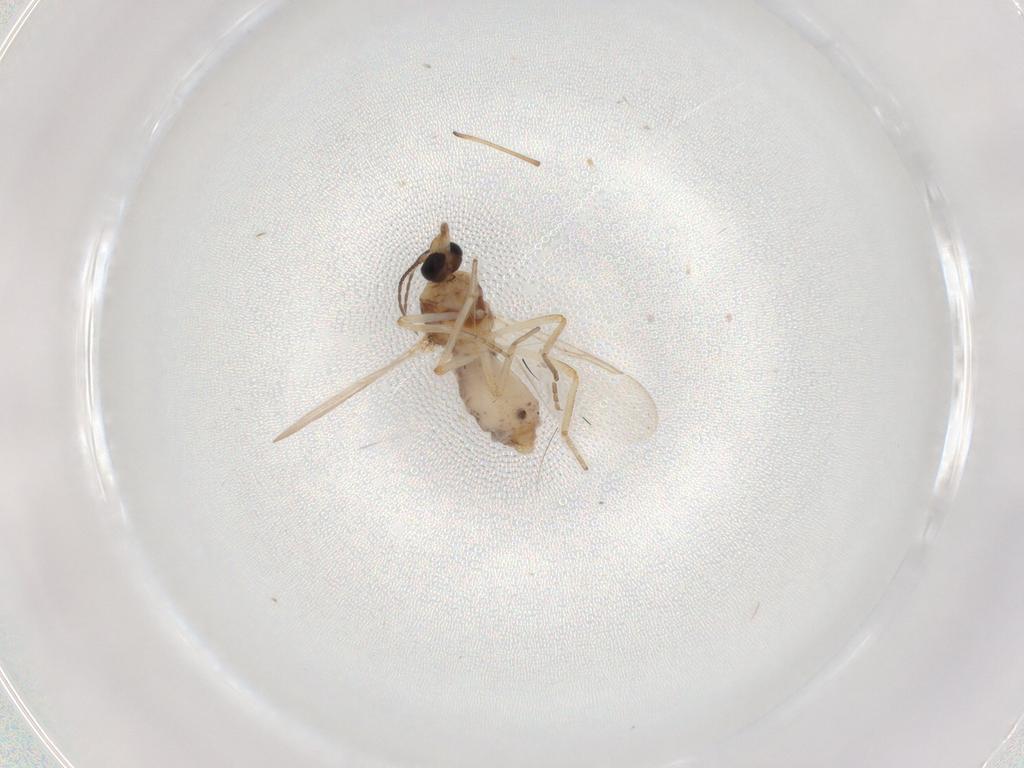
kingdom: Animalia
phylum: Arthropoda
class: Insecta
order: Diptera
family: Ceratopogonidae
